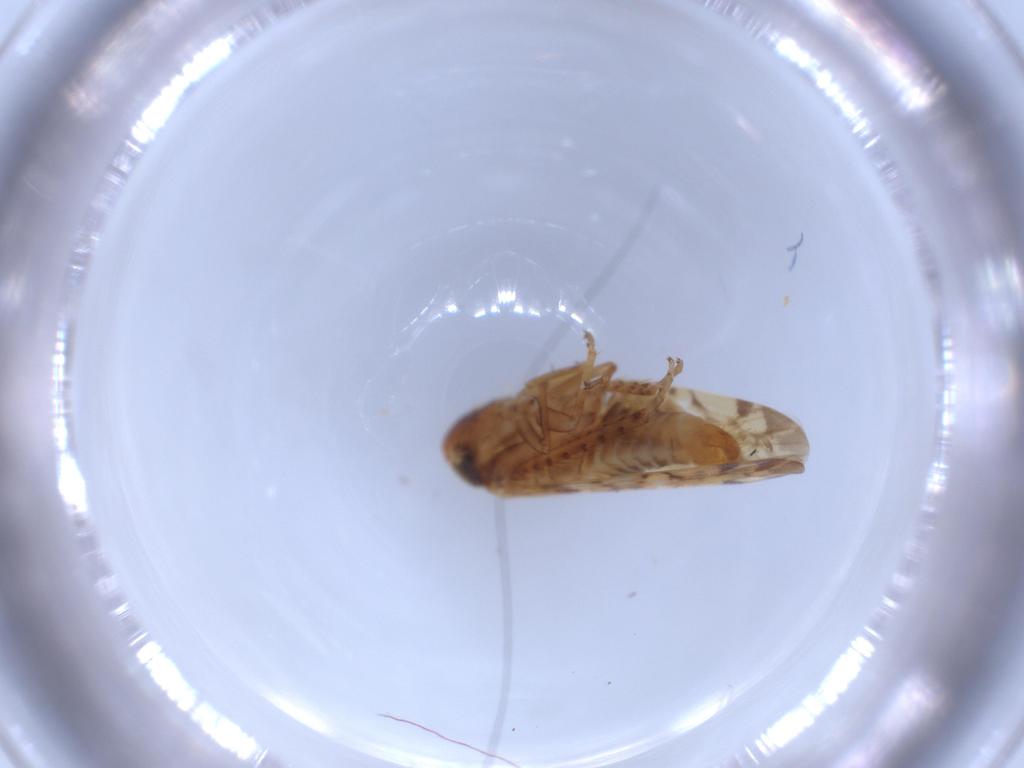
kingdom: Animalia
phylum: Arthropoda
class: Insecta
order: Hemiptera
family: Cicadellidae
